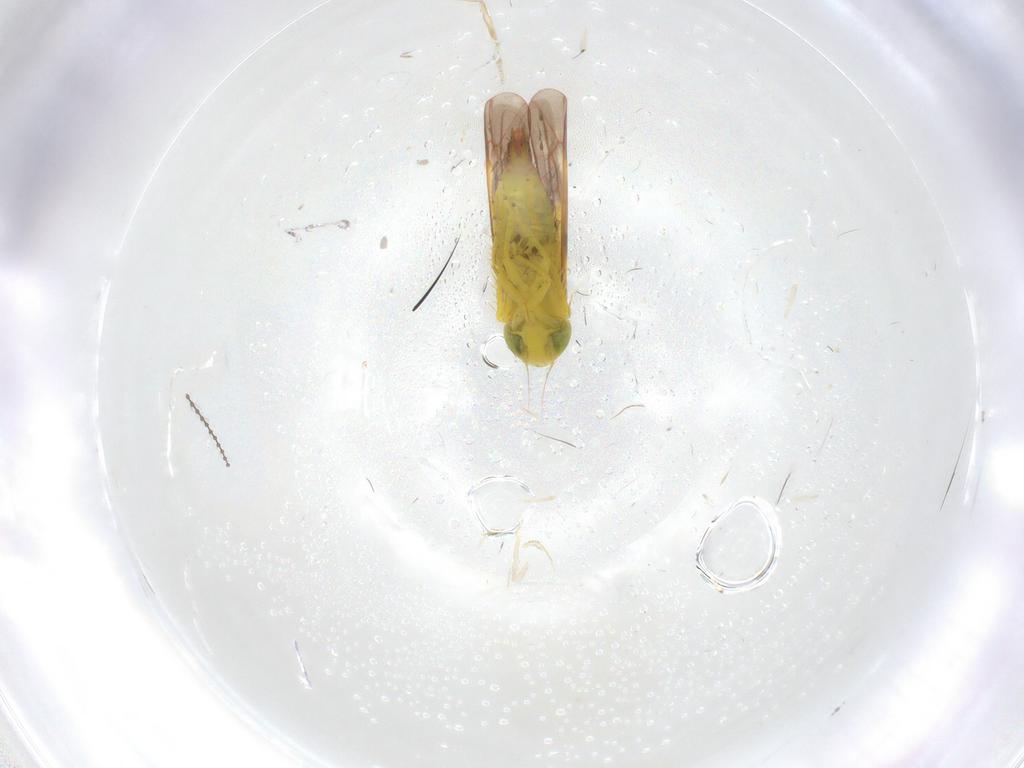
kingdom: Animalia
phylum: Arthropoda
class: Insecta
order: Hemiptera
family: Cicadellidae
